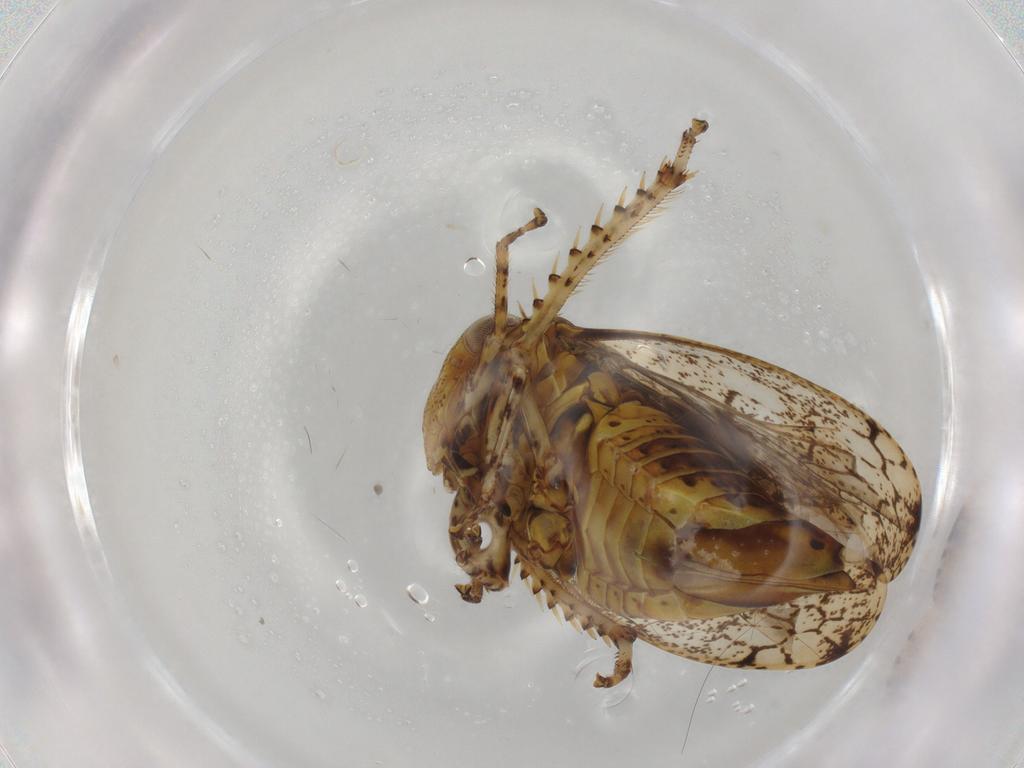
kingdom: Animalia
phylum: Arthropoda
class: Insecta
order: Hemiptera
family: Cicadellidae
